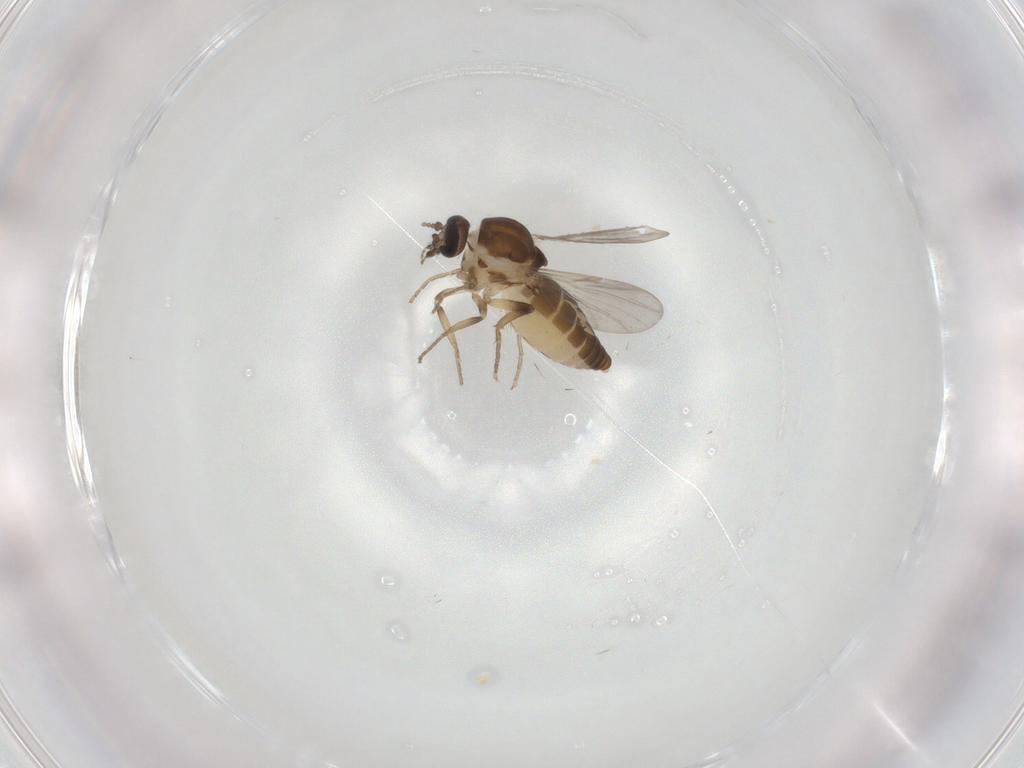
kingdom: Animalia
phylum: Arthropoda
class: Insecta
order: Diptera
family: Ceratopogonidae
